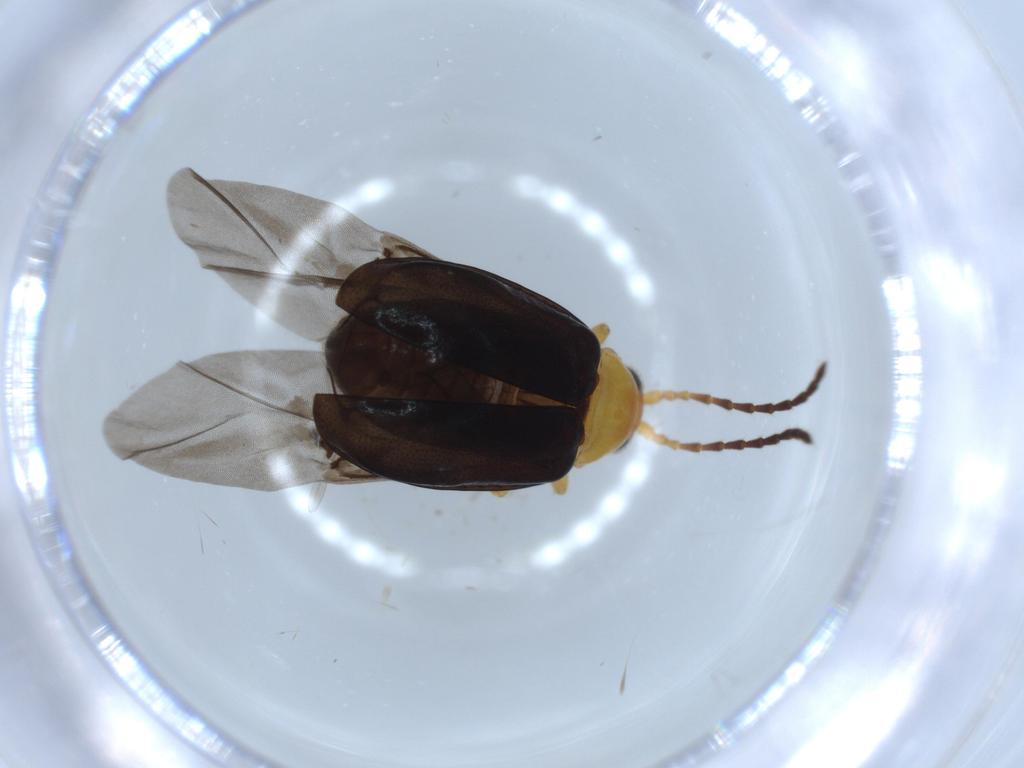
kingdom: Animalia
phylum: Arthropoda
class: Insecta
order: Coleoptera
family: Chrysomelidae
